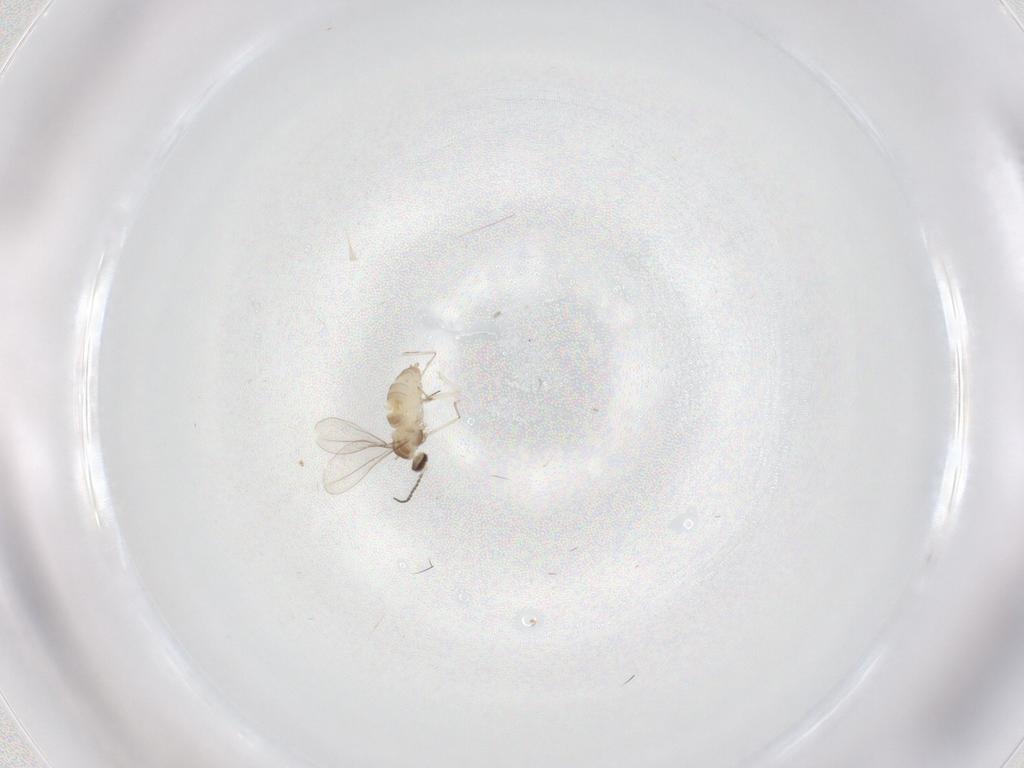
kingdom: Animalia
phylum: Arthropoda
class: Insecta
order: Diptera
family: Cecidomyiidae
